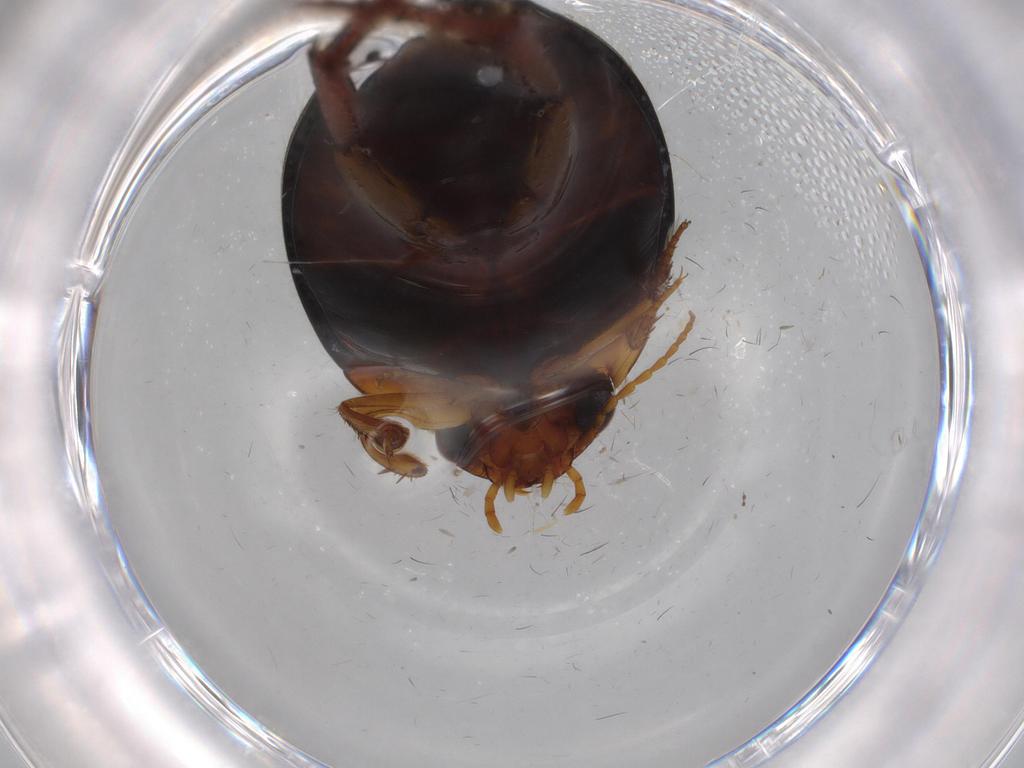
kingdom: Animalia
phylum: Arthropoda
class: Insecta
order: Coleoptera
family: Dytiscidae
